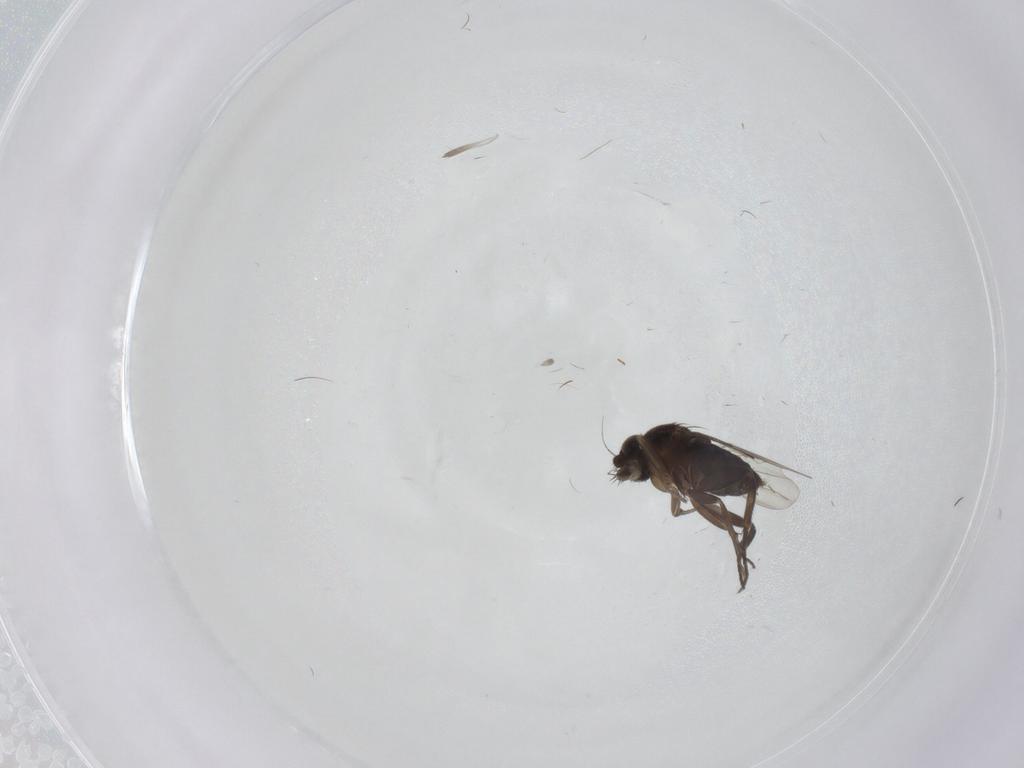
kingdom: Animalia
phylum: Arthropoda
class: Insecta
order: Diptera
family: Phoridae
